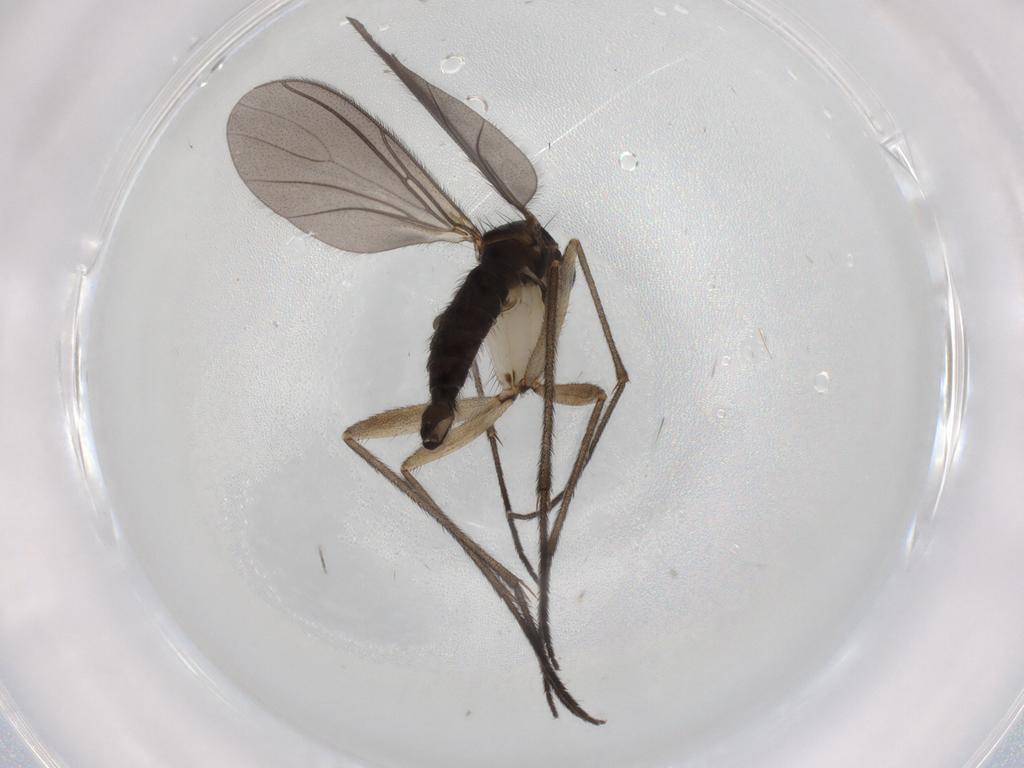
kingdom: Animalia
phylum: Arthropoda
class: Insecta
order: Diptera
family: Sciaridae
